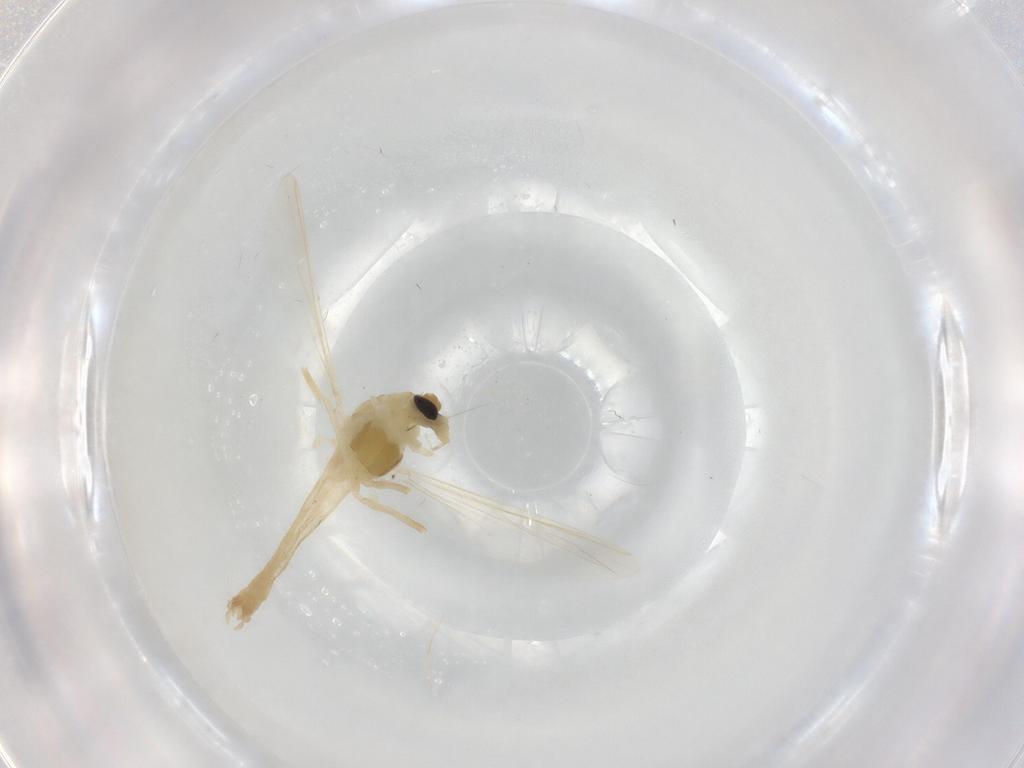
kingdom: Animalia
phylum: Arthropoda
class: Insecta
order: Diptera
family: Chironomidae
